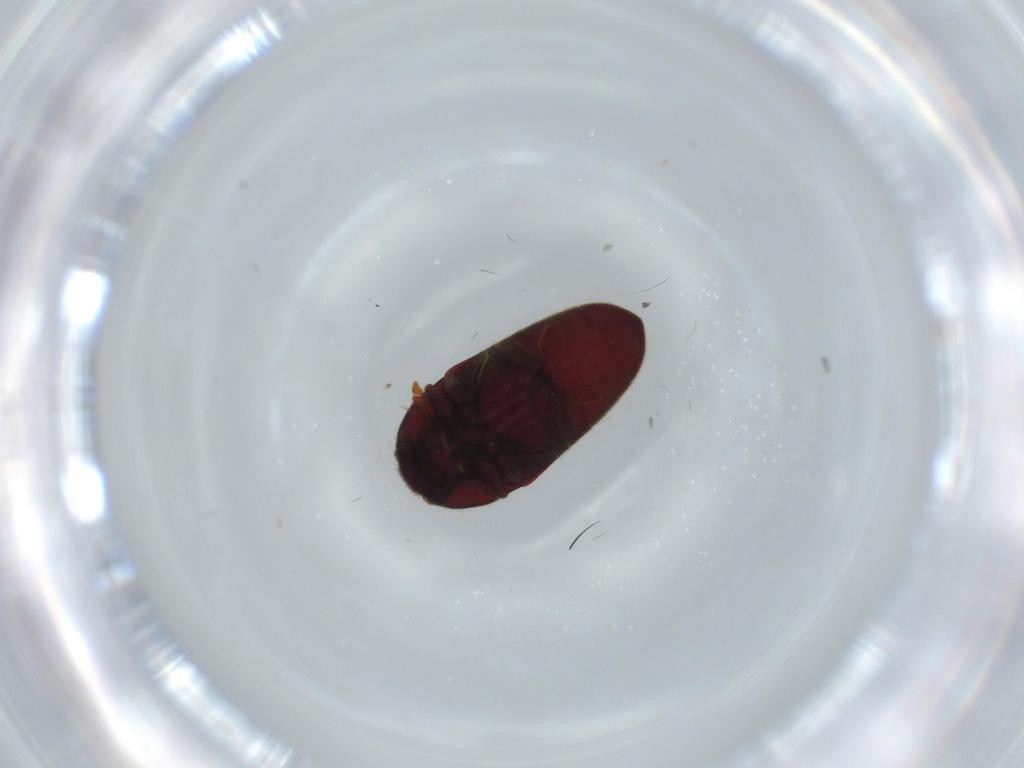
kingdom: Animalia
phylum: Arthropoda
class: Insecta
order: Coleoptera
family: Throscidae
